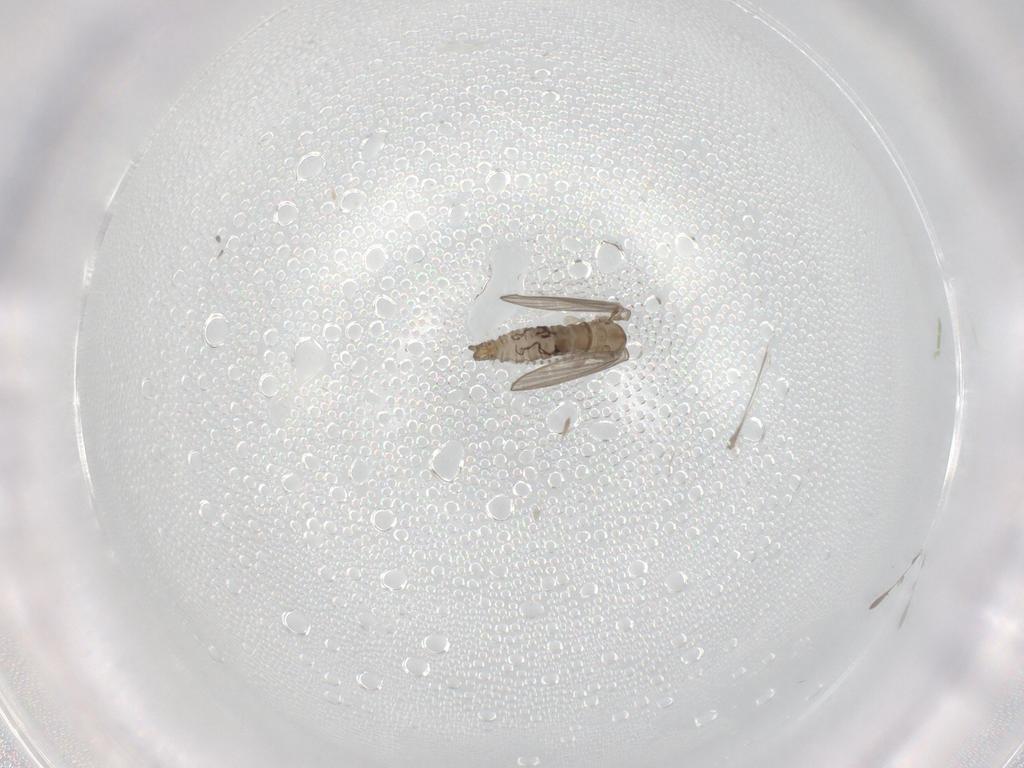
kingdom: Animalia
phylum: Arthropoda
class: Insecta
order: Diptera
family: Psychodidae
